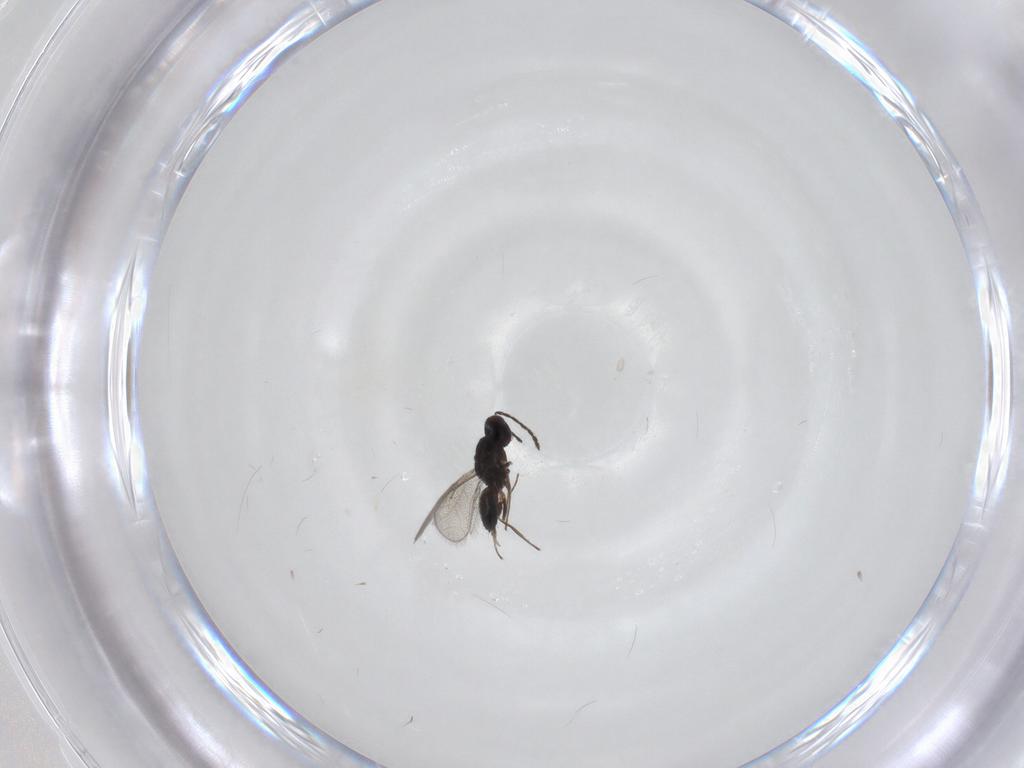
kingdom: Animalia
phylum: Arthropoda
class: Insecta
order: Hymenoptera
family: Eulophidae
